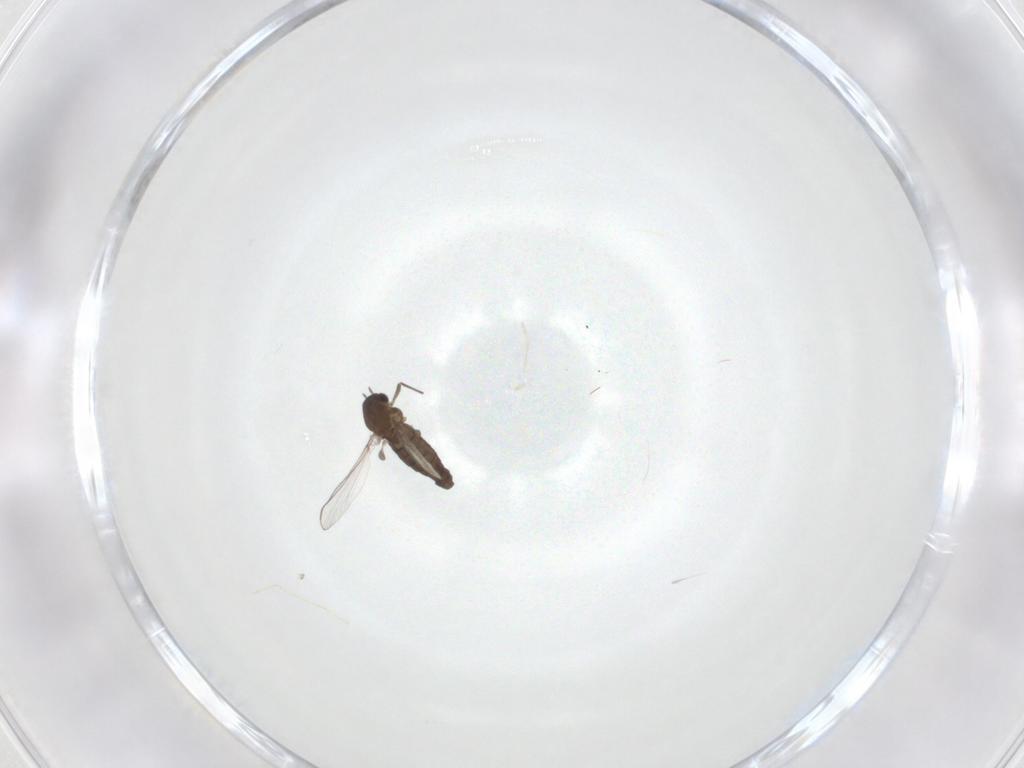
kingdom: Animalia
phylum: Arthropoda
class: Insecta
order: Diptera
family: Chironomidae
